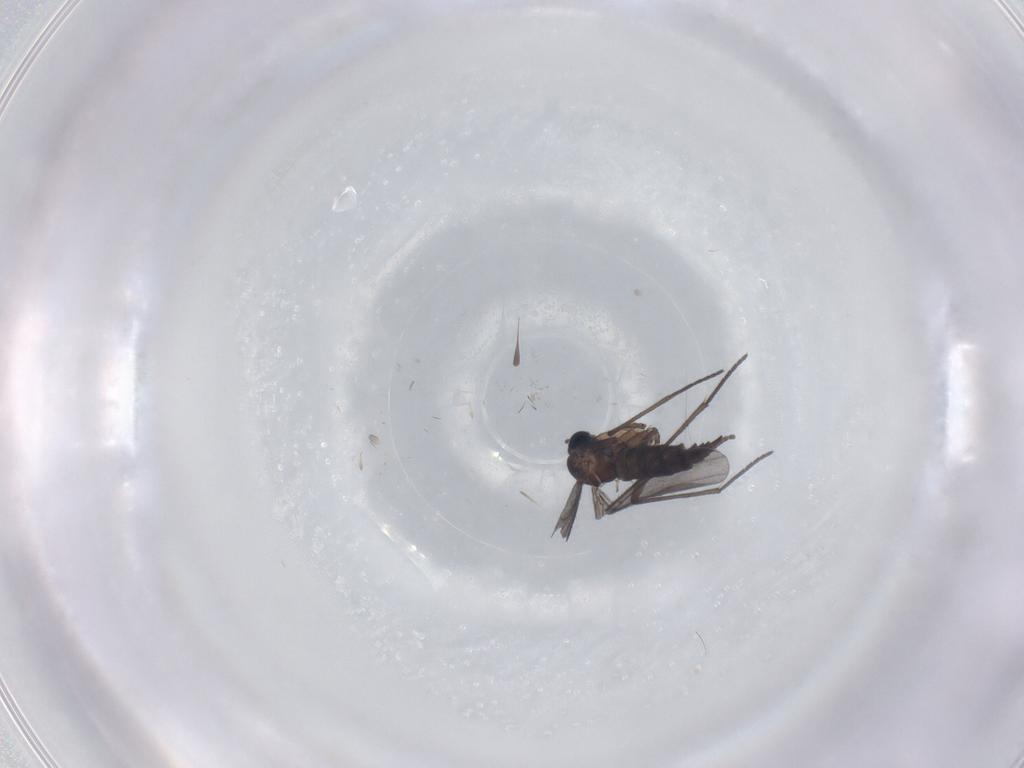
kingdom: Animalia
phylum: Arthropoda
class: Insecta
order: Diptera
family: Sciaridae
